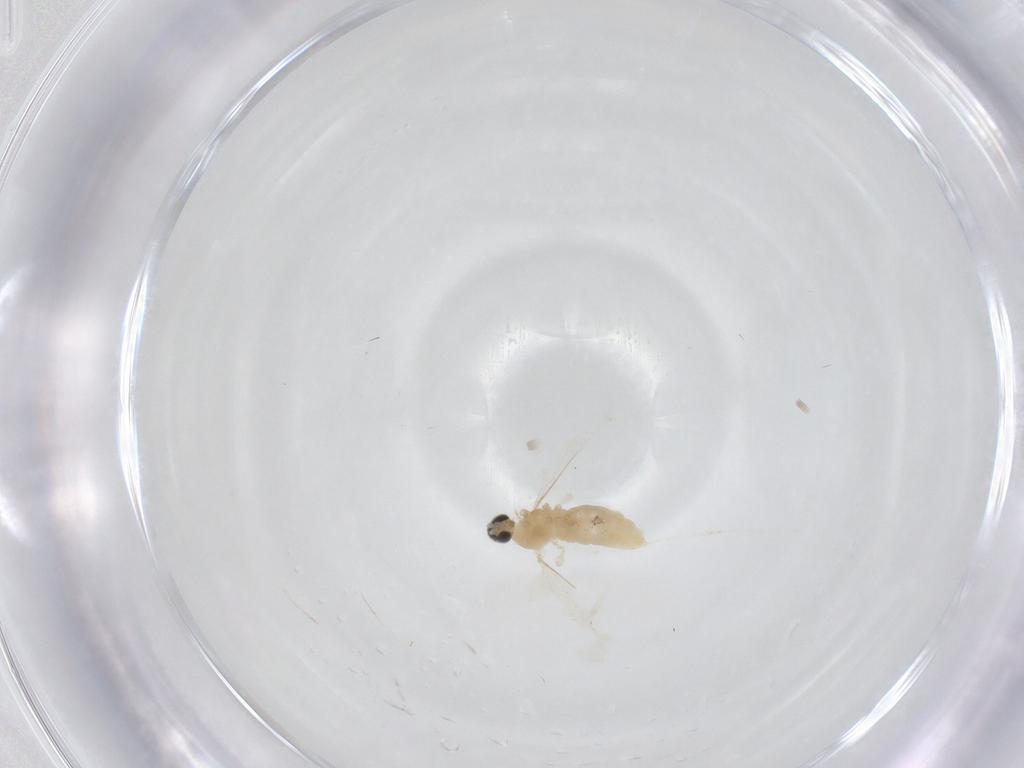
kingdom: Animalia
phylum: Arthropoda
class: Insecta
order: Diptera
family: Cecidomyiidae
